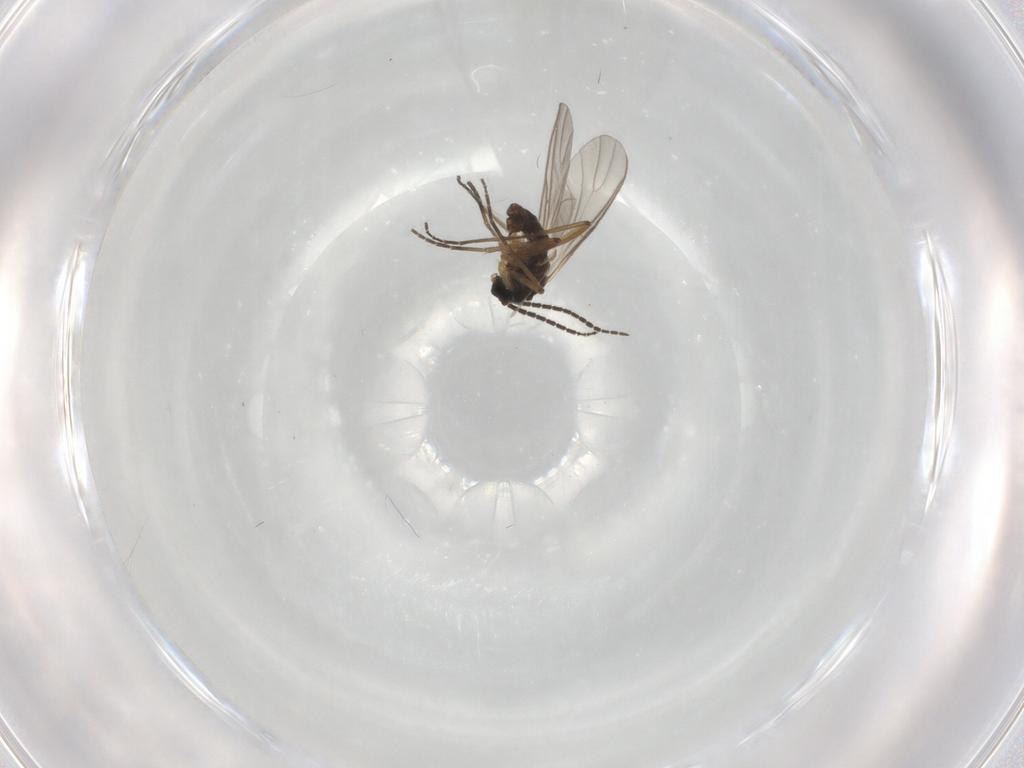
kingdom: Animalia
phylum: Arthropoda
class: Insecta
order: Diptera
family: Sciaridae
